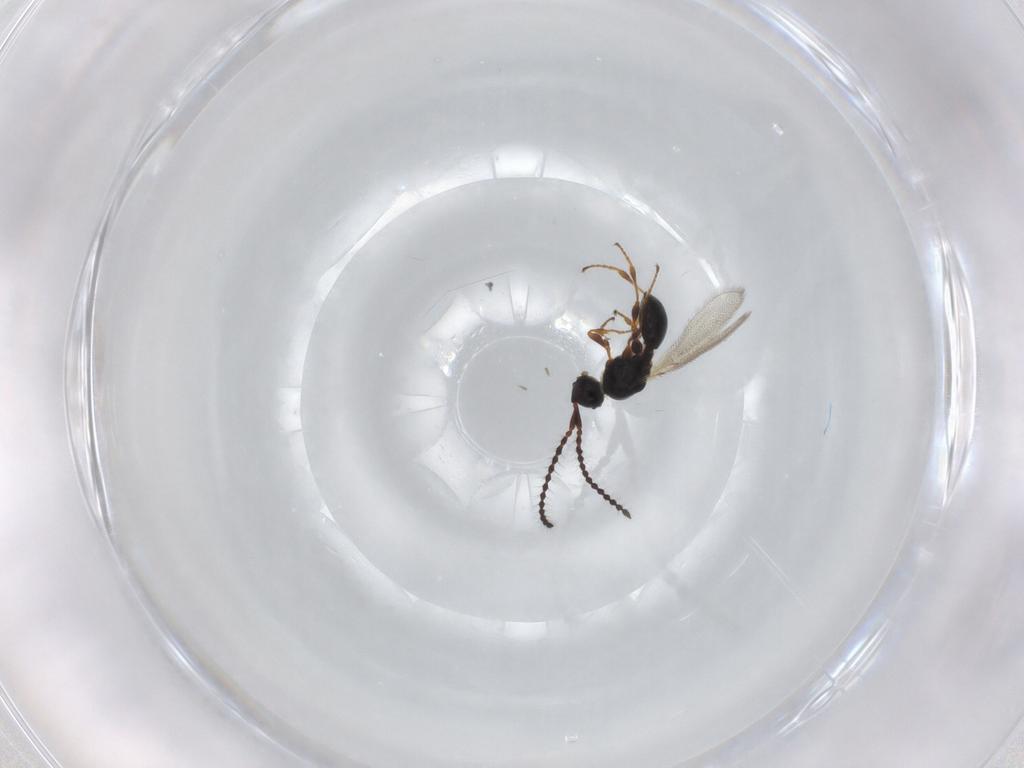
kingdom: Animalia
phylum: Arthropoda
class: Insecta
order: Hymenoptera
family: Diapriidae
